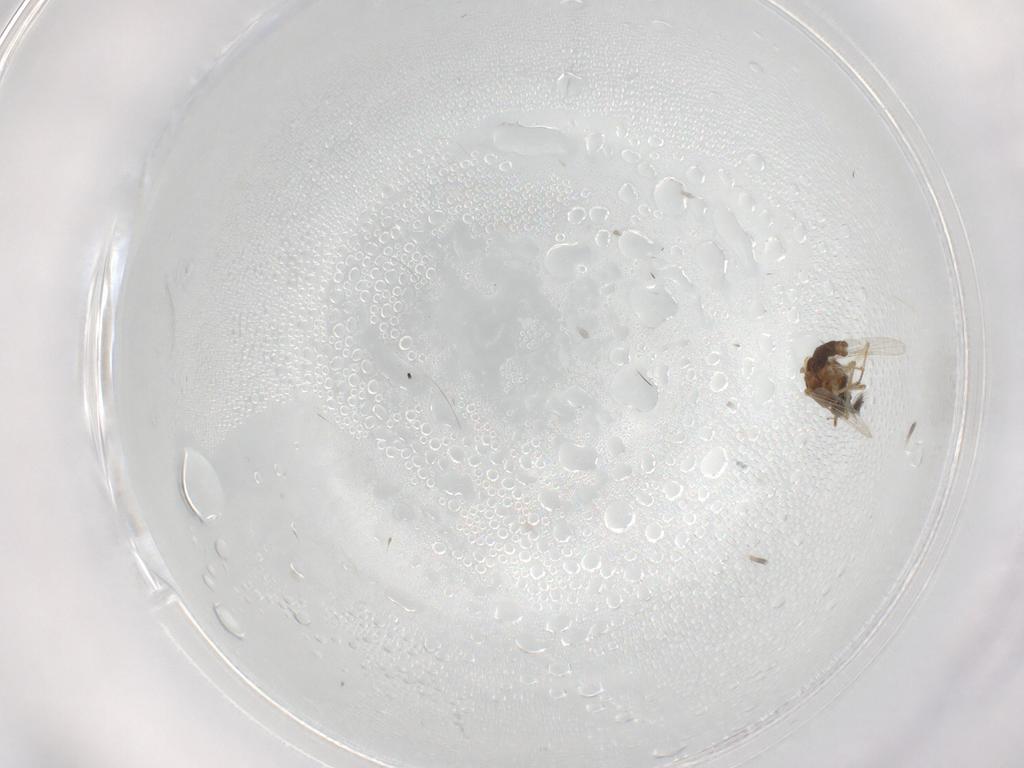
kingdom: Animalia
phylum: Arthropoda
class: Insecta
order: Diptera
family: Ceratopogonidae
